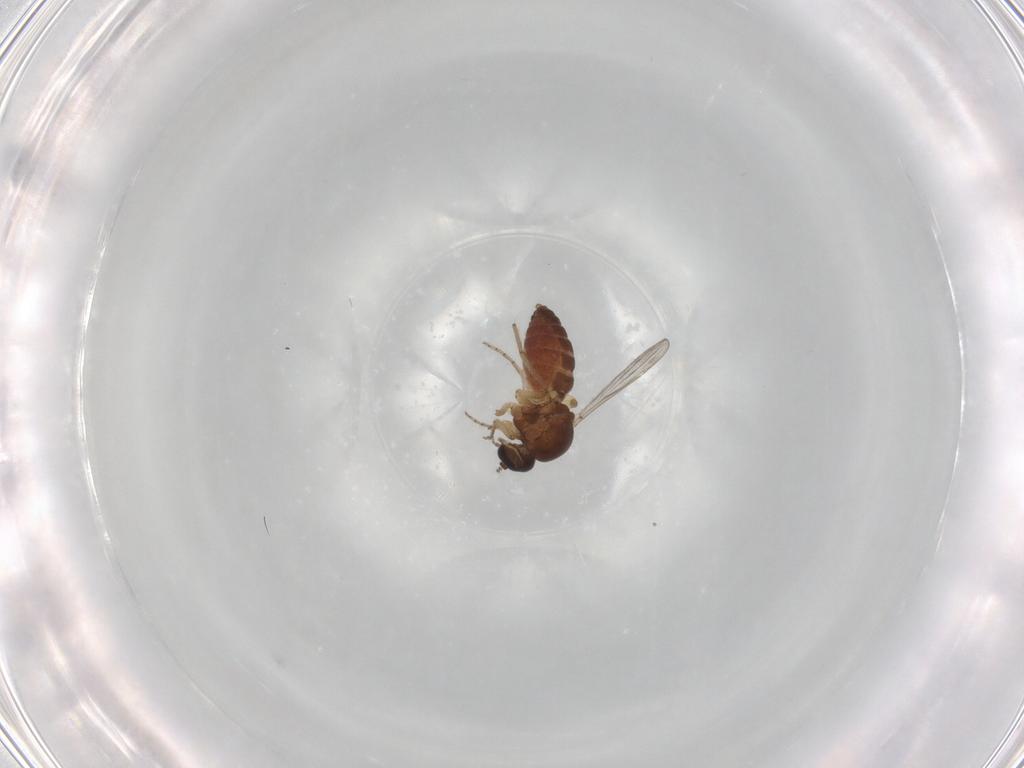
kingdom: Animalia
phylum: Arthropoda
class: Insecta
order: Diptera
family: Ceratopogonidae
